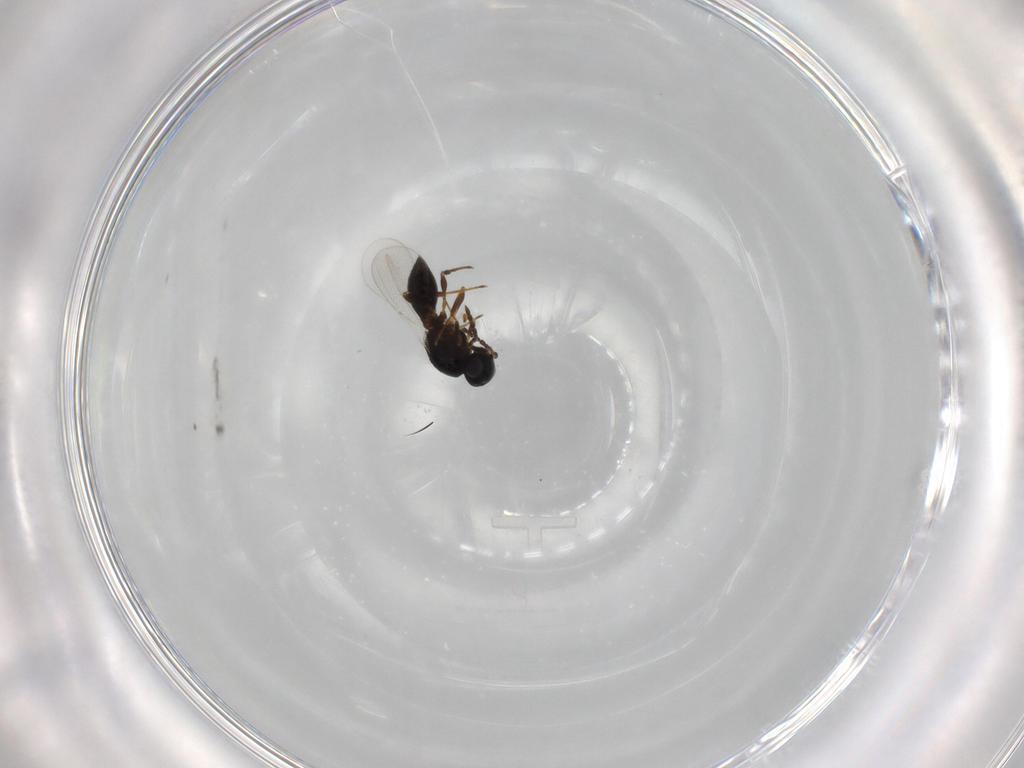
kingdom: Animalia
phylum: Arthropoda
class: Insecta
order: Hymenoptera
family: Platygastridae
